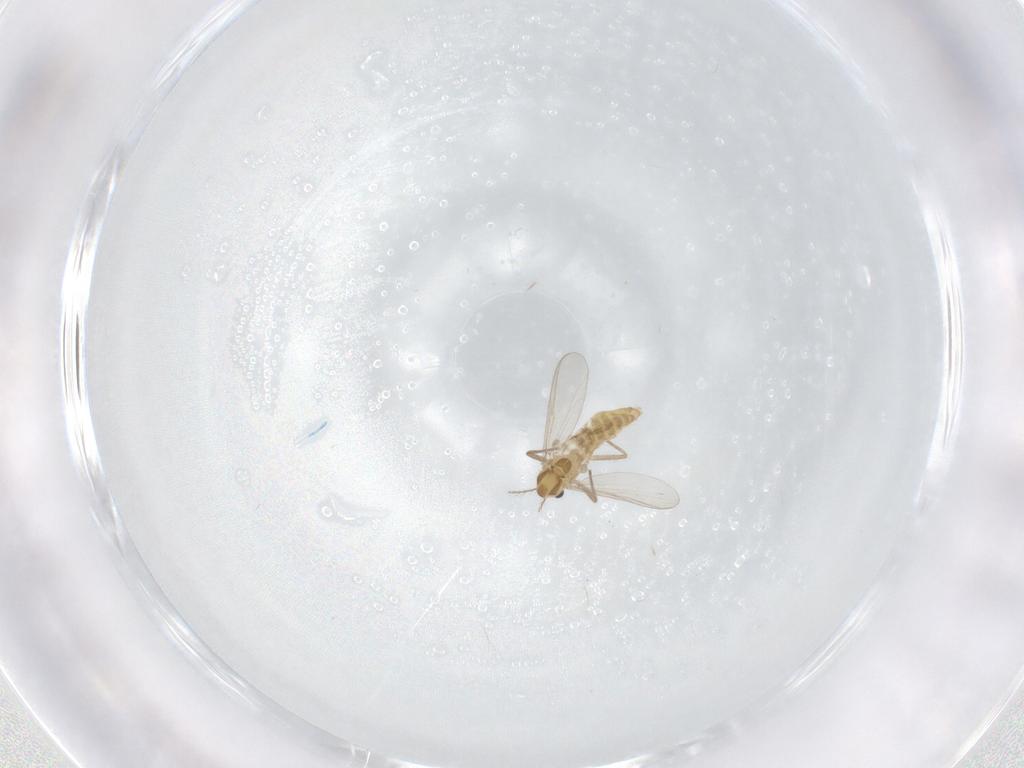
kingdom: Animalia
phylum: Arthropoda
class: Insecta
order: Diptera
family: Chironomidae
